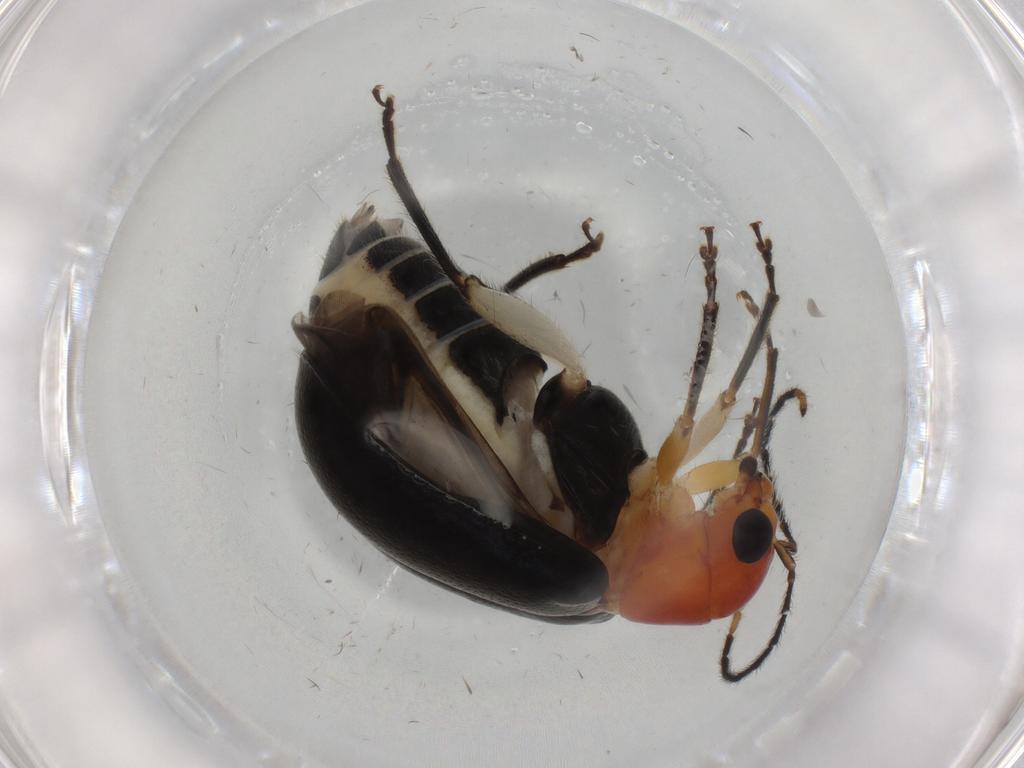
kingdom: Animalia
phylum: Arthropoda
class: Insecta
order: Coleoptera
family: Chrysomelidae
